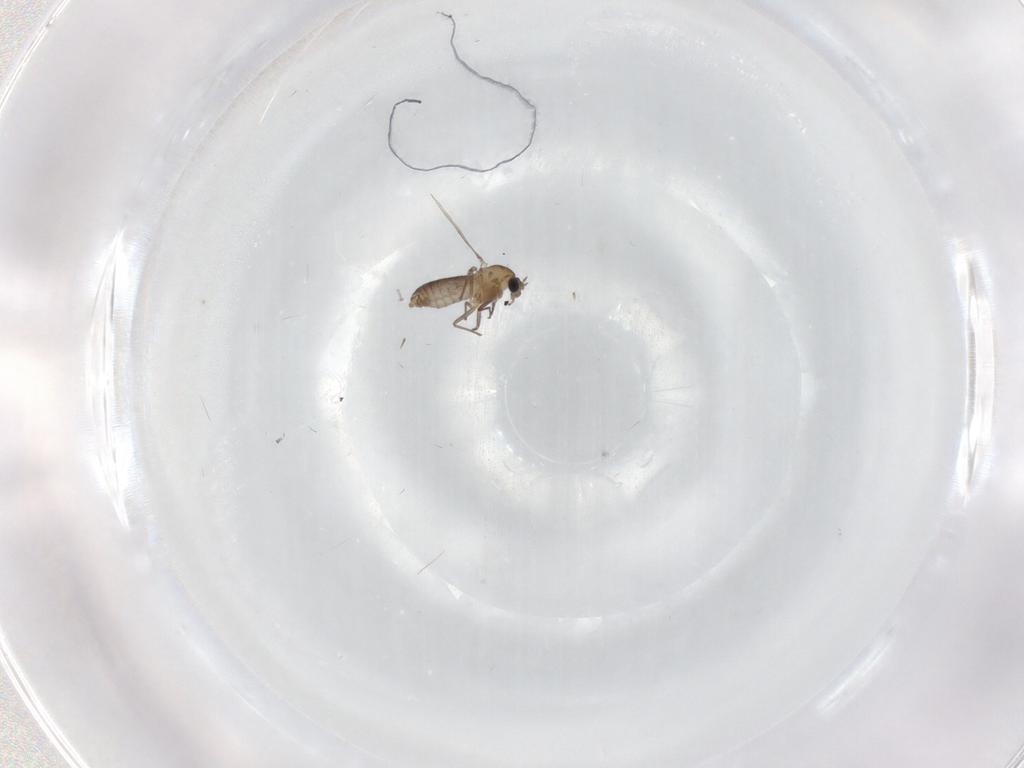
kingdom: Animalia
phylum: Arthropoda
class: Insecta
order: Diptera
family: Chironomidae
